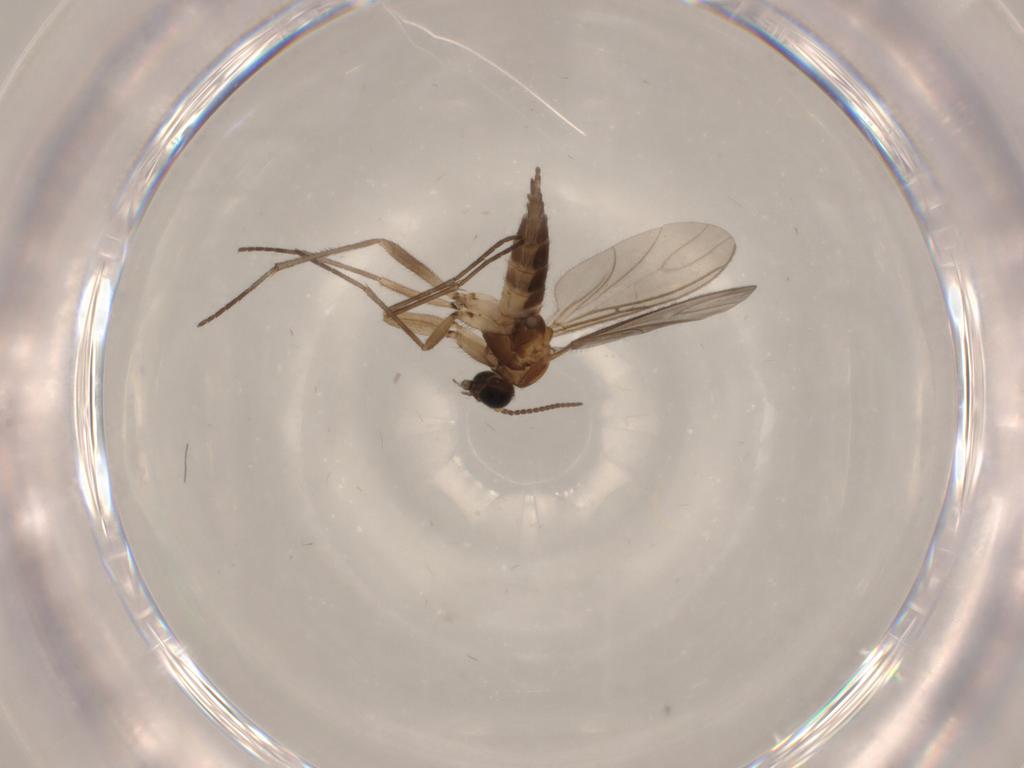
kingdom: Animalia
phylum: Arthropoda
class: Insecta
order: Diptera
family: Sciaridae
